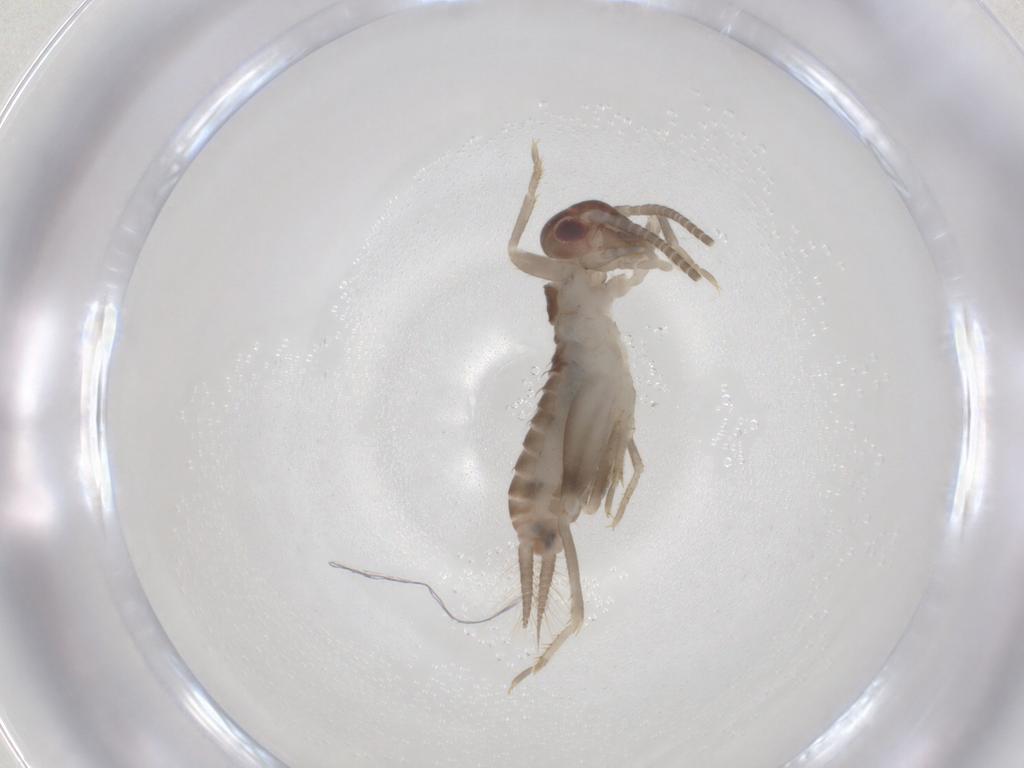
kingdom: Animalia
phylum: Arthropoda
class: Insecta
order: Orthoptera
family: Gryllidae
